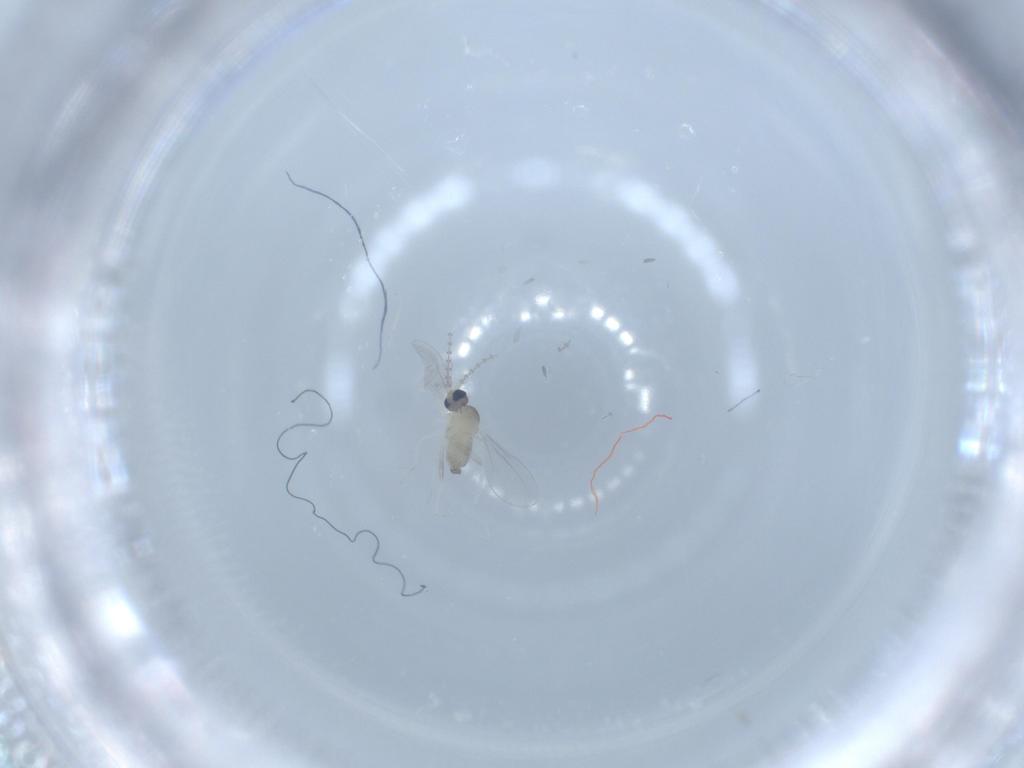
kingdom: Animalia
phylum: Arthropoda
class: Insecta
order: Diptera
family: Cecidomyiidae
